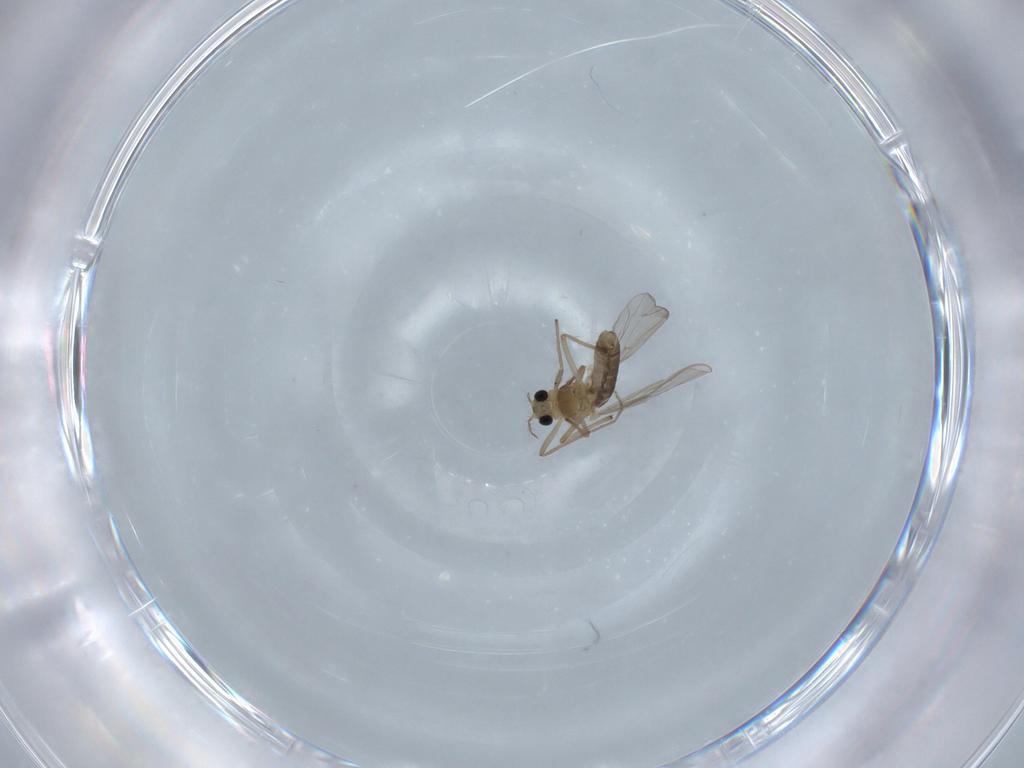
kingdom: Animalia
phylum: Arthropoda
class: Insecta
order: Diptera
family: Chironomidae
